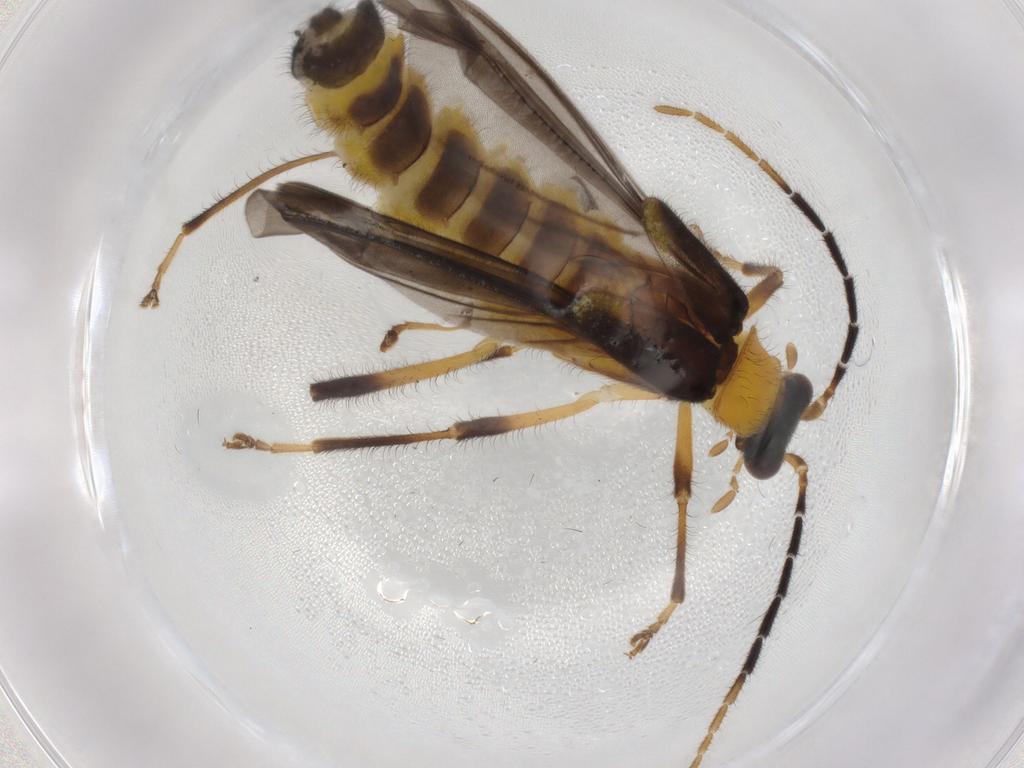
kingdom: Animalia
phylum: Arthropoda
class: Insecta
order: Coleoptera
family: Cantharidae
